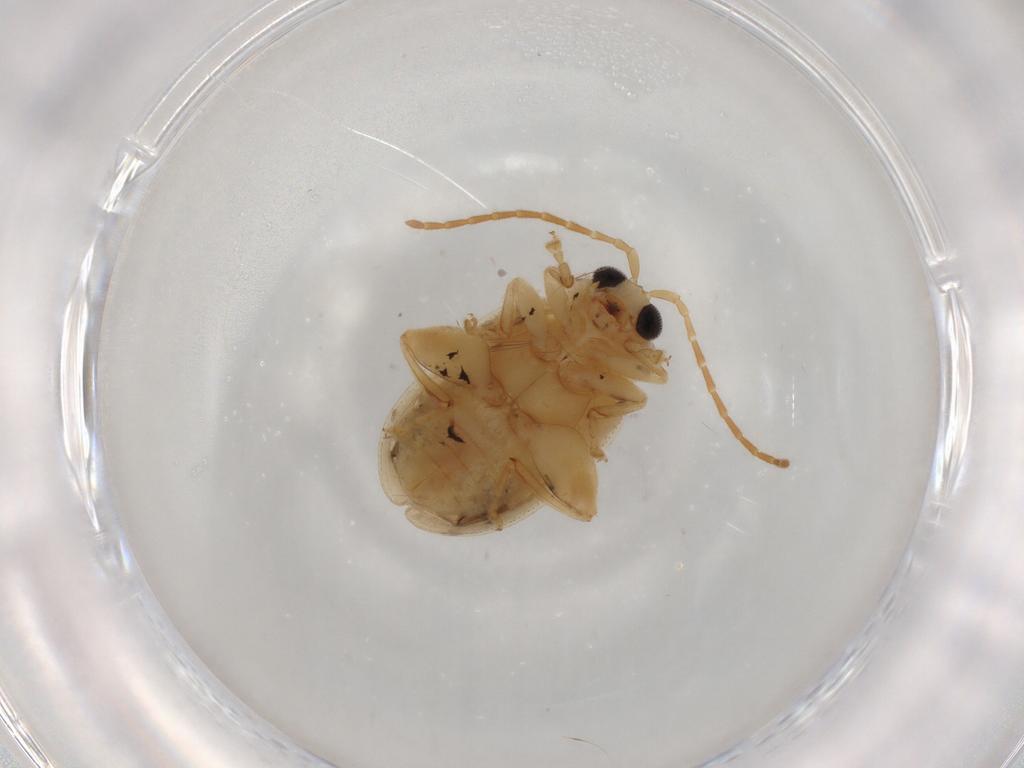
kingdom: Animalia
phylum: Arthropoda
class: Insecta
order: Coleoptera
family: Chrysomelidae
